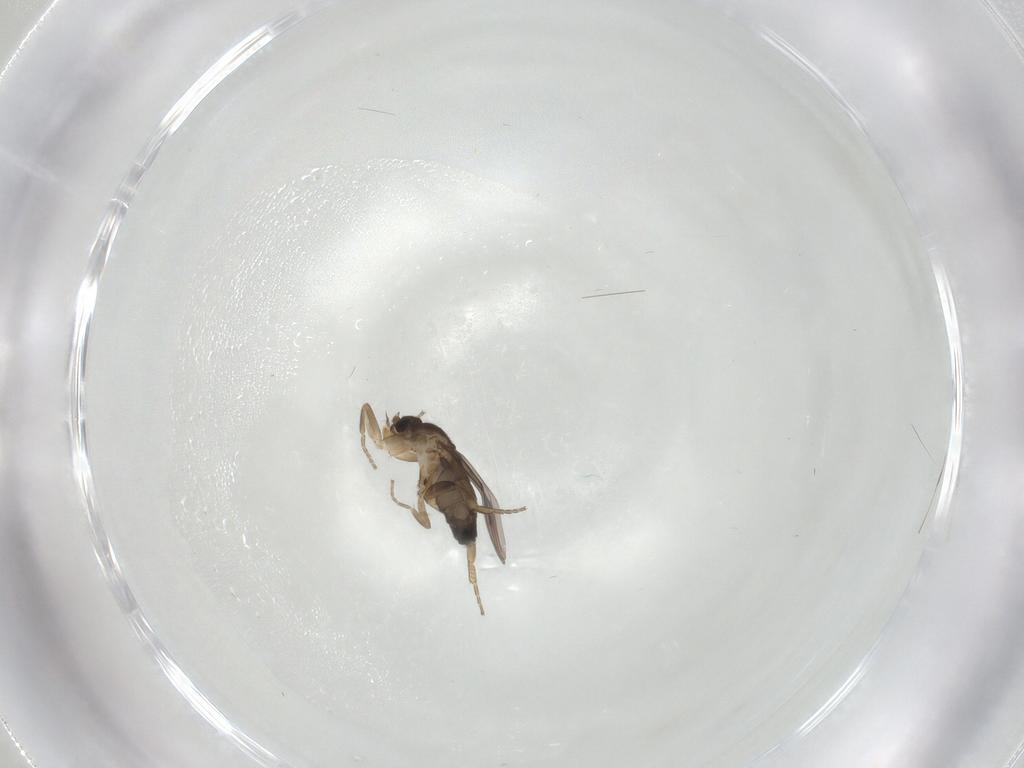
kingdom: Animalia
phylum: Arthropoda
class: Insecta
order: Diptera
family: Phoridae
